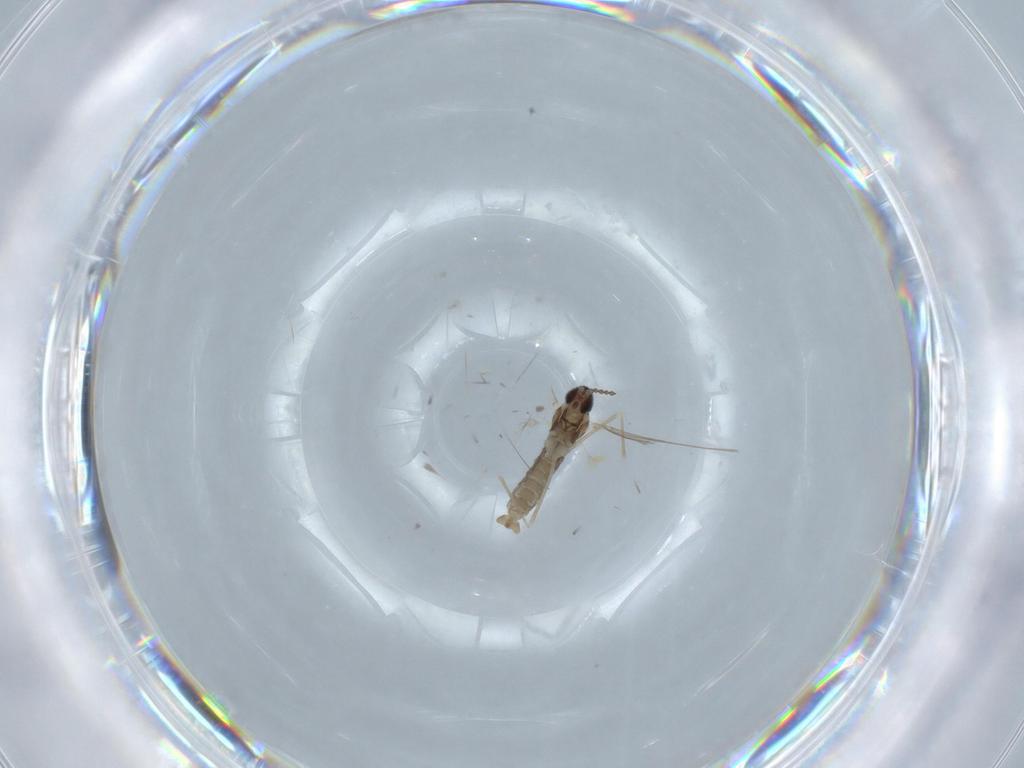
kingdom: Animalia
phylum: Arthropoda
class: Insecta
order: Diptera
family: Cecidomyiidae
